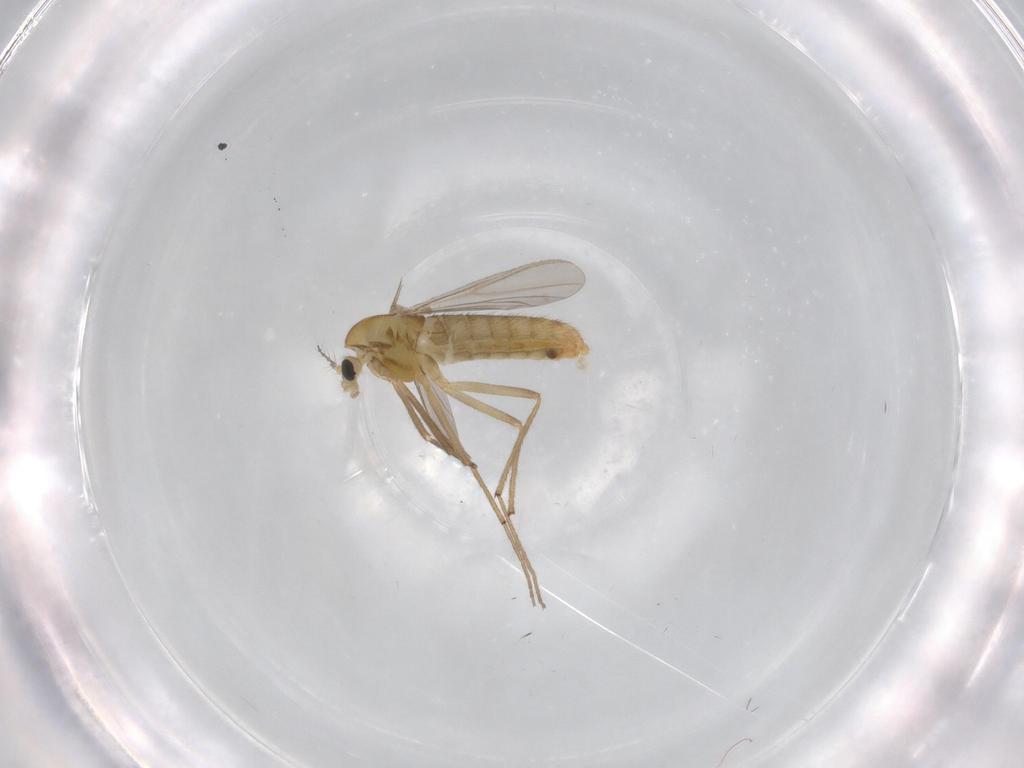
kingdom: Animalia
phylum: Arthropoda
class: Insecta
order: Diptera
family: Chironomidae
